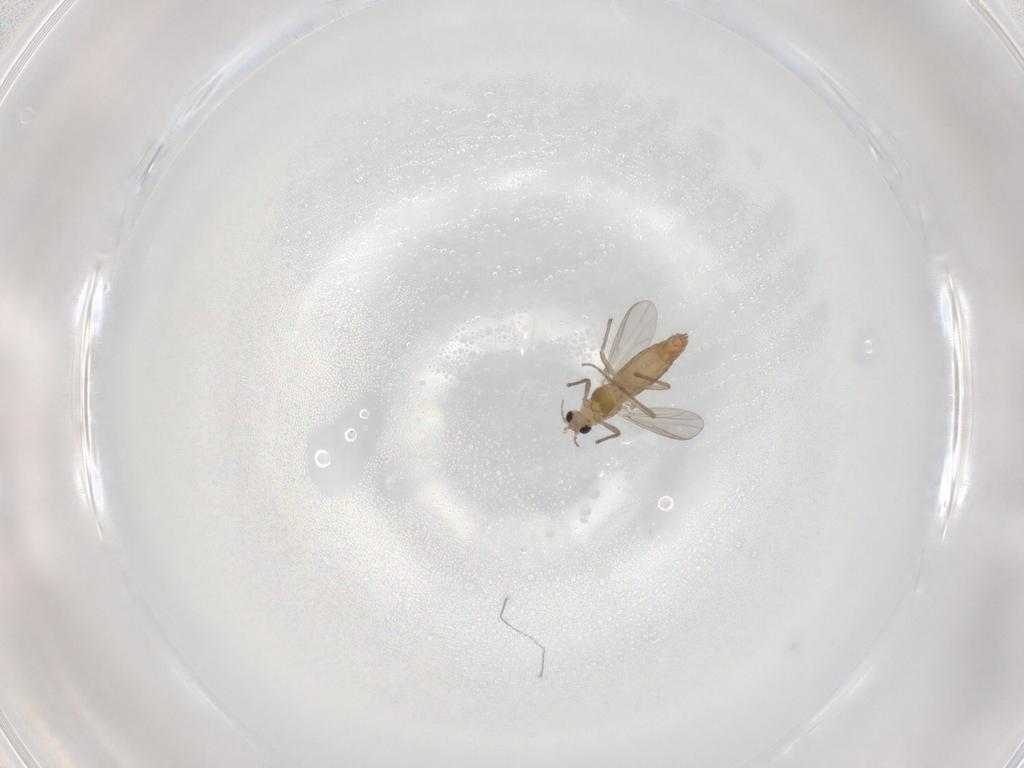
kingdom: Animalia
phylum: Arthropoda
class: Insecta
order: Diptera
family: Chironomidae
